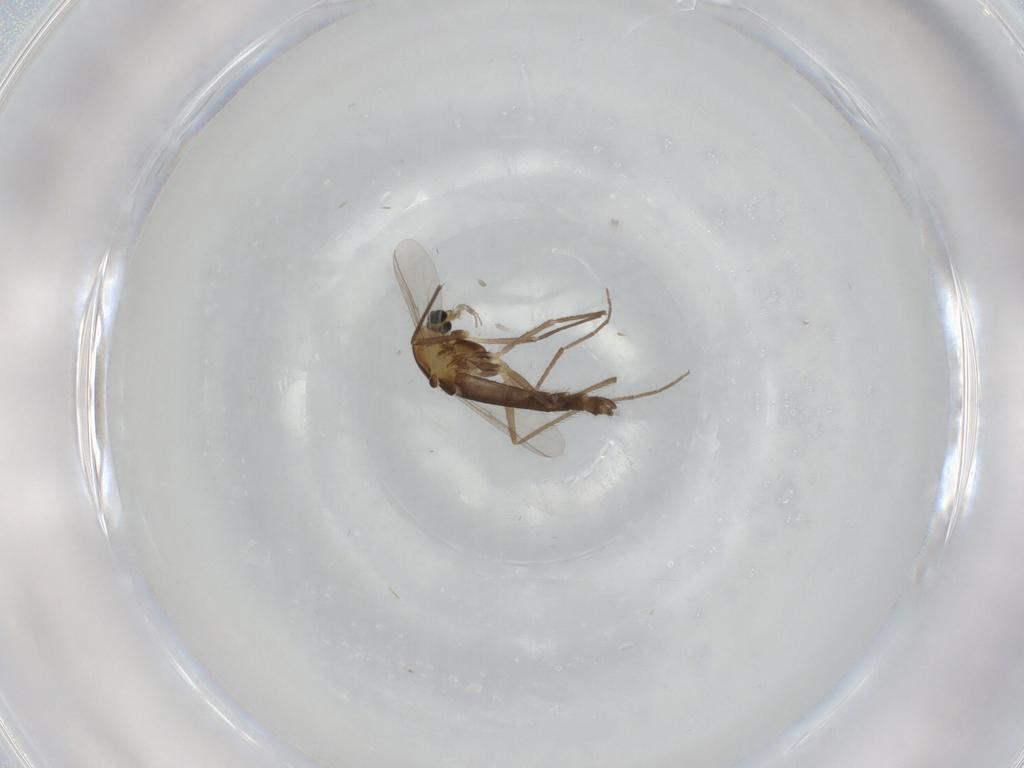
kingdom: Animalia
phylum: Arthropoda
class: Insecta
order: Diptera
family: Chironomidae
